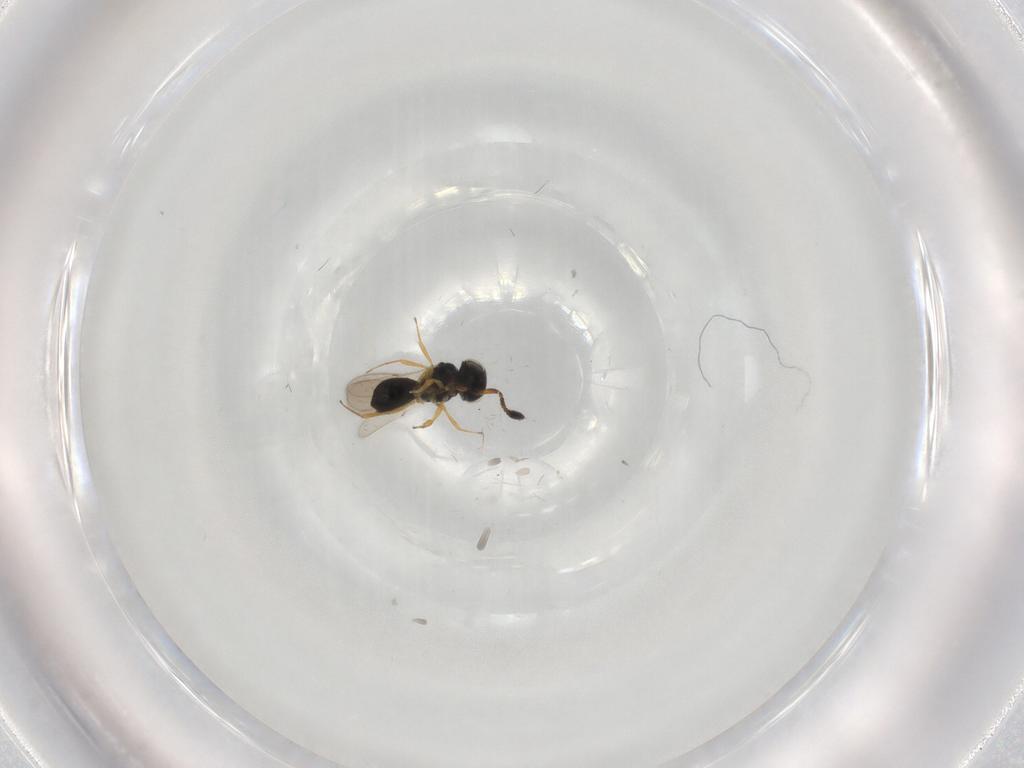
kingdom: Animalia
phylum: Arthropoda
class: Insecta
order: Hymenoptera
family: Scelionidae
